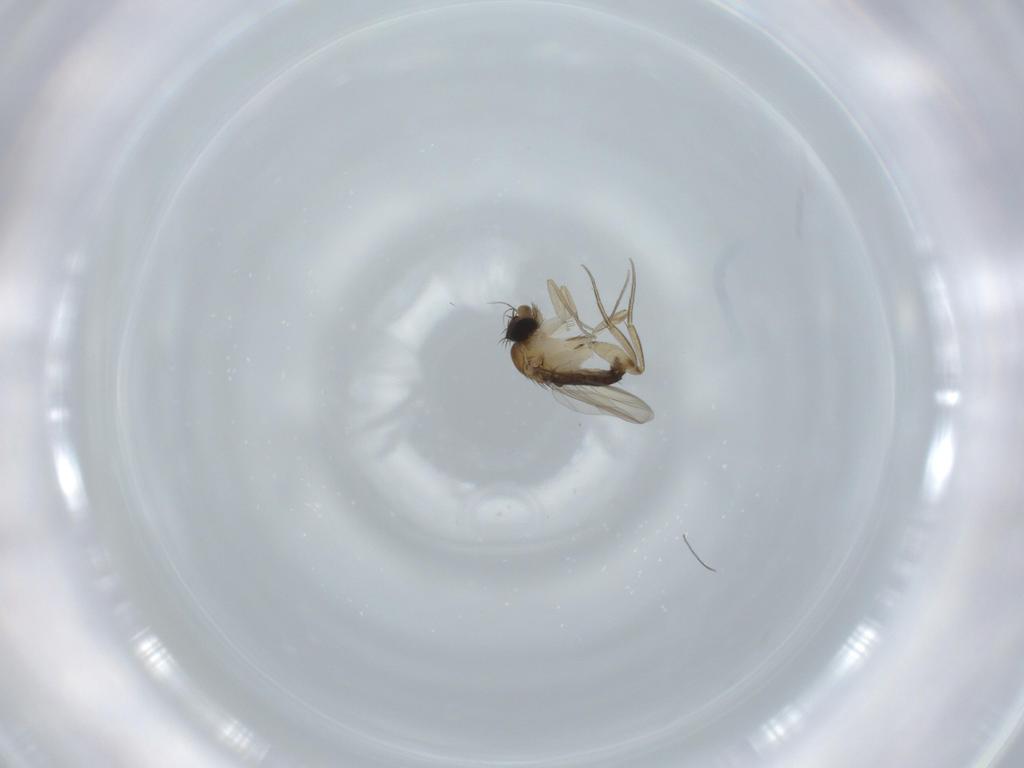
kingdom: Animalia
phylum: Arthropoda
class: Insecta
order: Diptera
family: Phoridae
